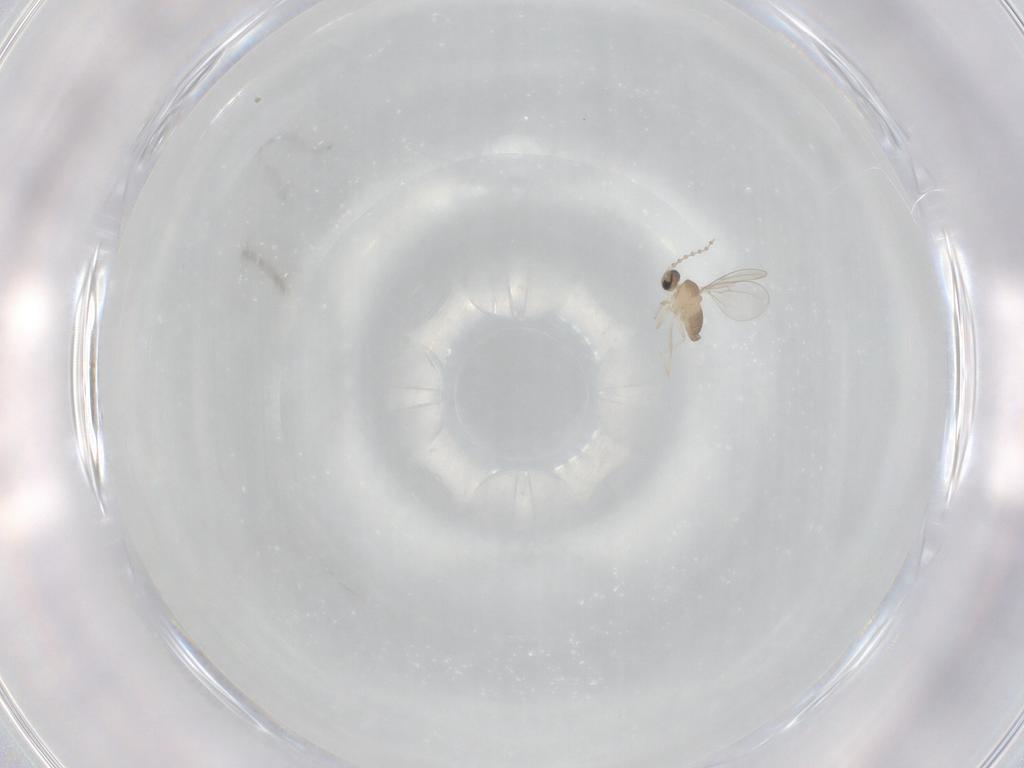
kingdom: Animalia
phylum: Arthropoda
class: Insecta
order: Diptera
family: Cecidomyiidae
